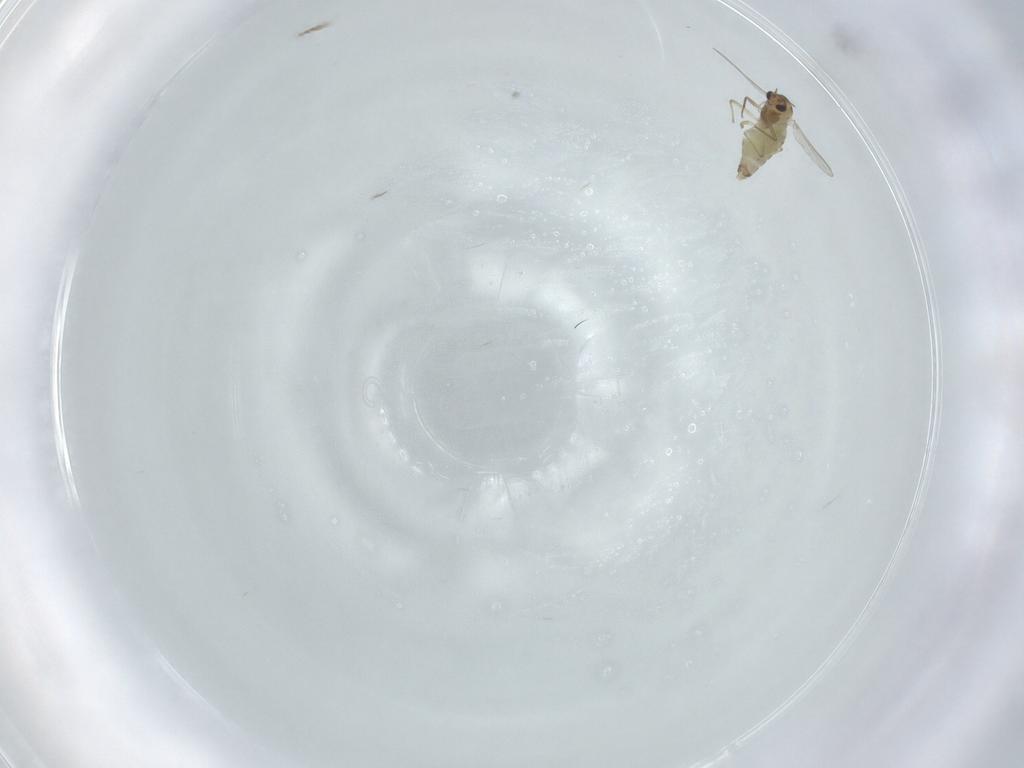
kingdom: Animalia
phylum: Arthropoda
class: Insecta
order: Diptera
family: Chironomidae
